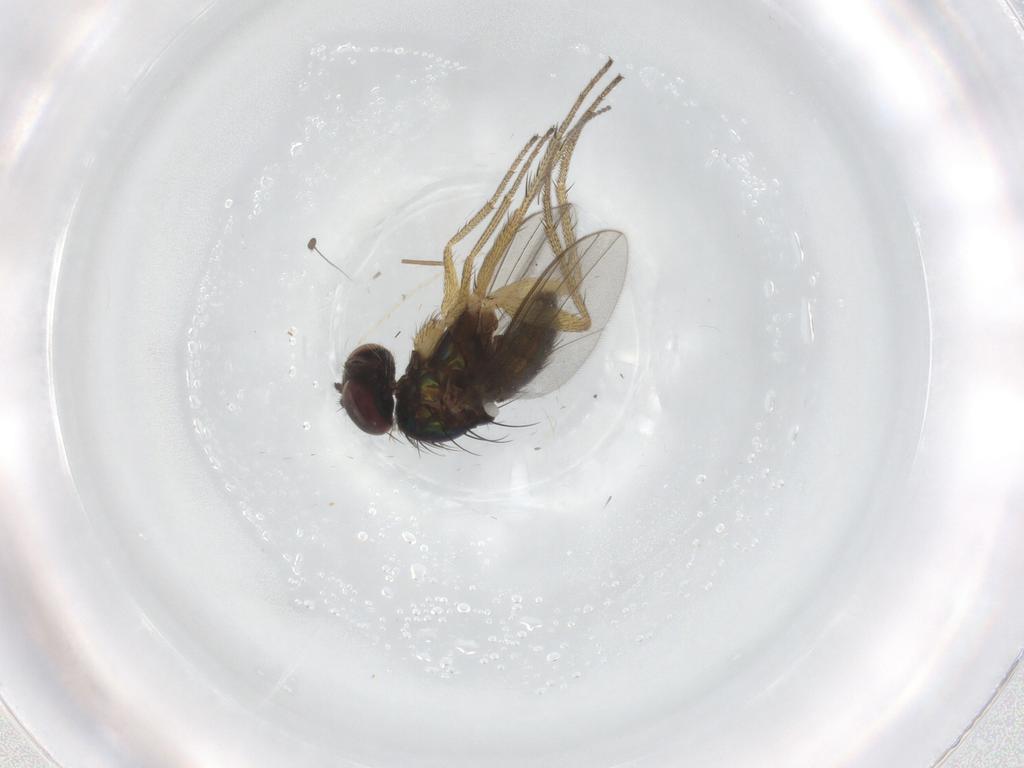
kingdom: Animalia
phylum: Arthropoda
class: Insecta
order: Diptera
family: Dolichopodidae
